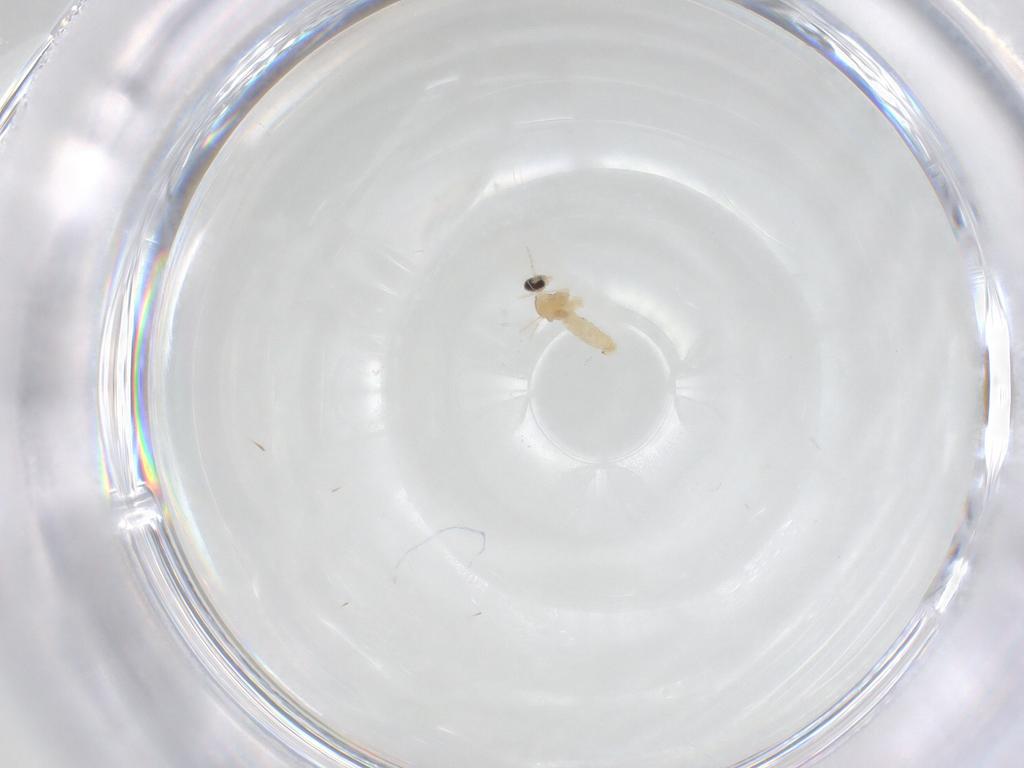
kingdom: Animalia
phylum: Arthropoda
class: Insecta
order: Diptera
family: Cecidomyiidae
